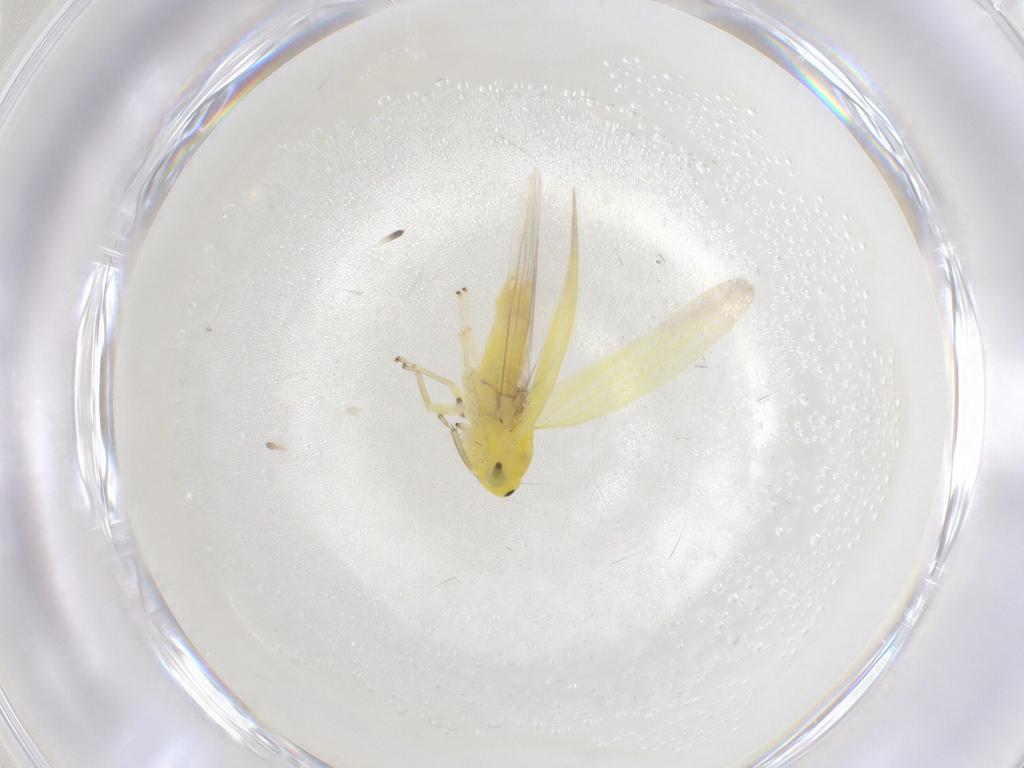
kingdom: Animalia
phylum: Arthropoda
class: Insecta
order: Hemiptera
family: Cicadellidae
